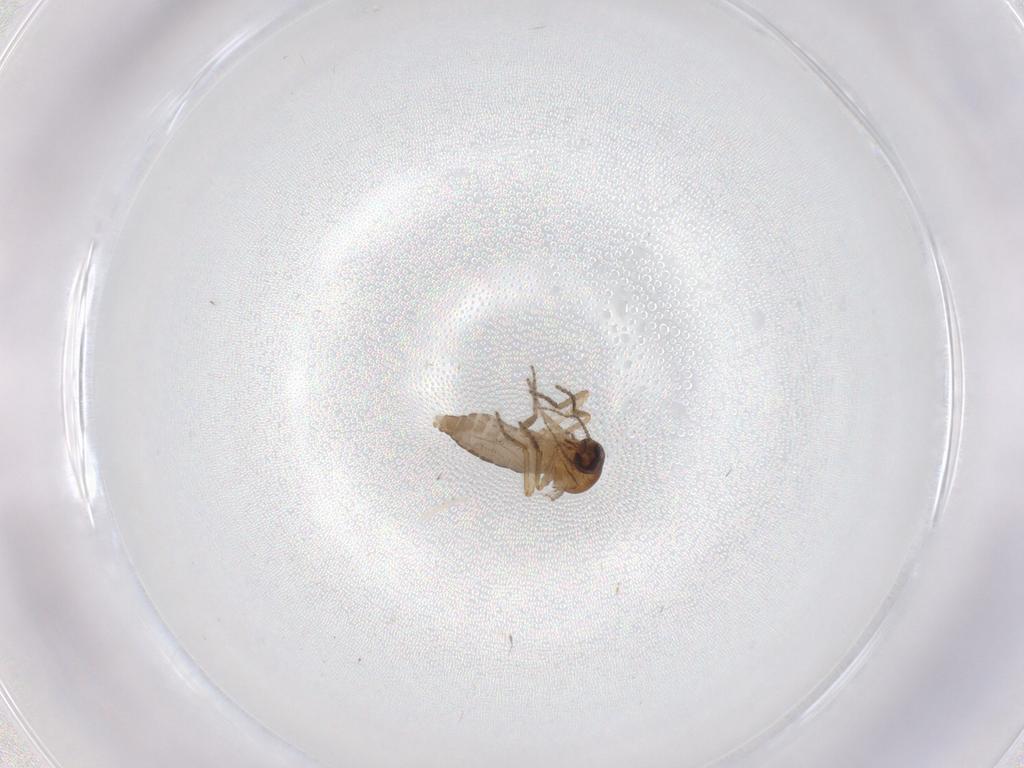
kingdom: Animalia
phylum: Arthropoda
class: Insecta
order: Diptera
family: Ceratopogonidae
